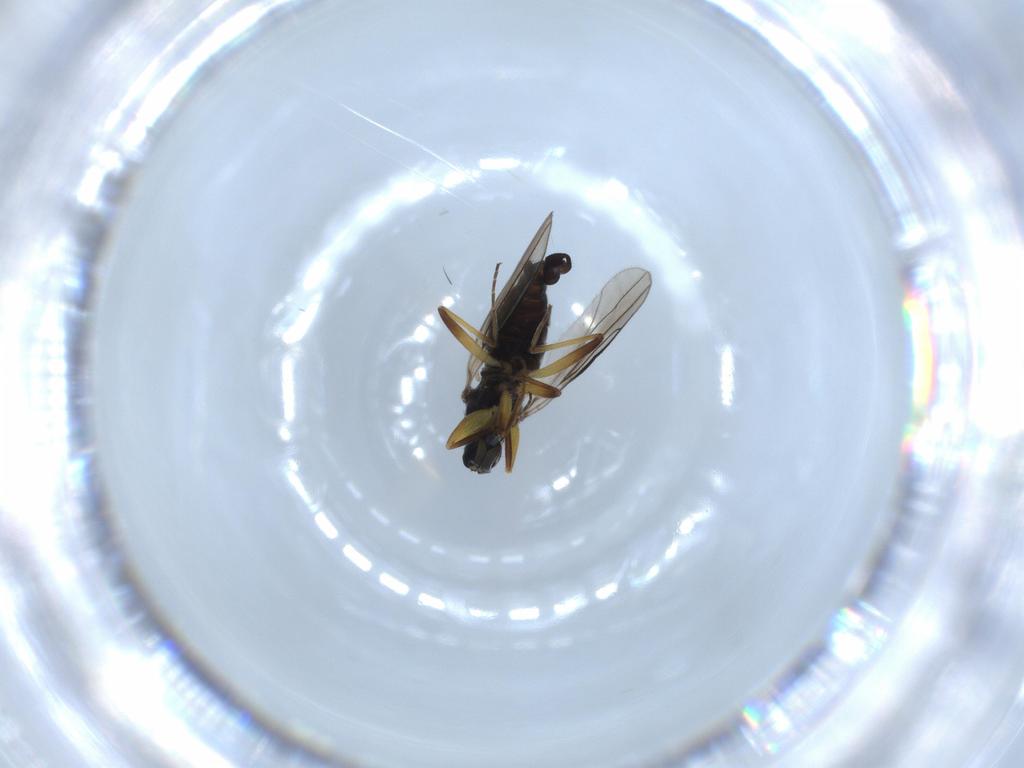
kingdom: Animalia
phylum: Arthropoda
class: Insecta
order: Diptera
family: Hybotidae
